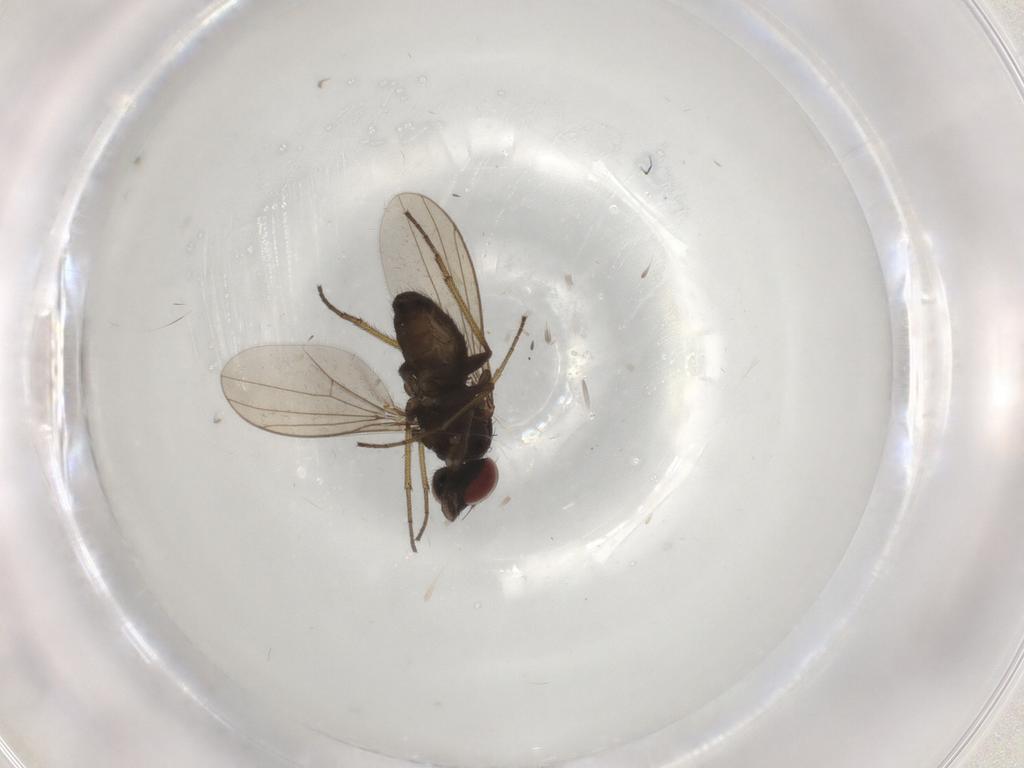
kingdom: Animalia
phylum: Arthropoda
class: Insecta
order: Diptera
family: Dolichopodidae
